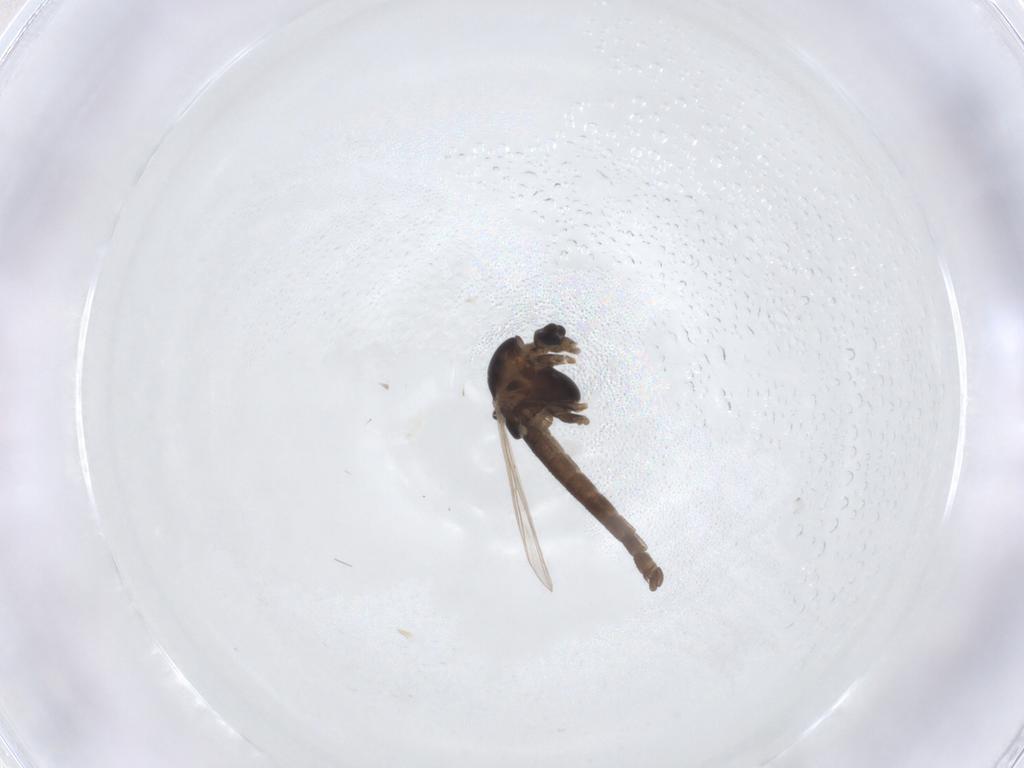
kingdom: Animalia
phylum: Arthropoda
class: Insecta
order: Diptera
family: Chironomidae
